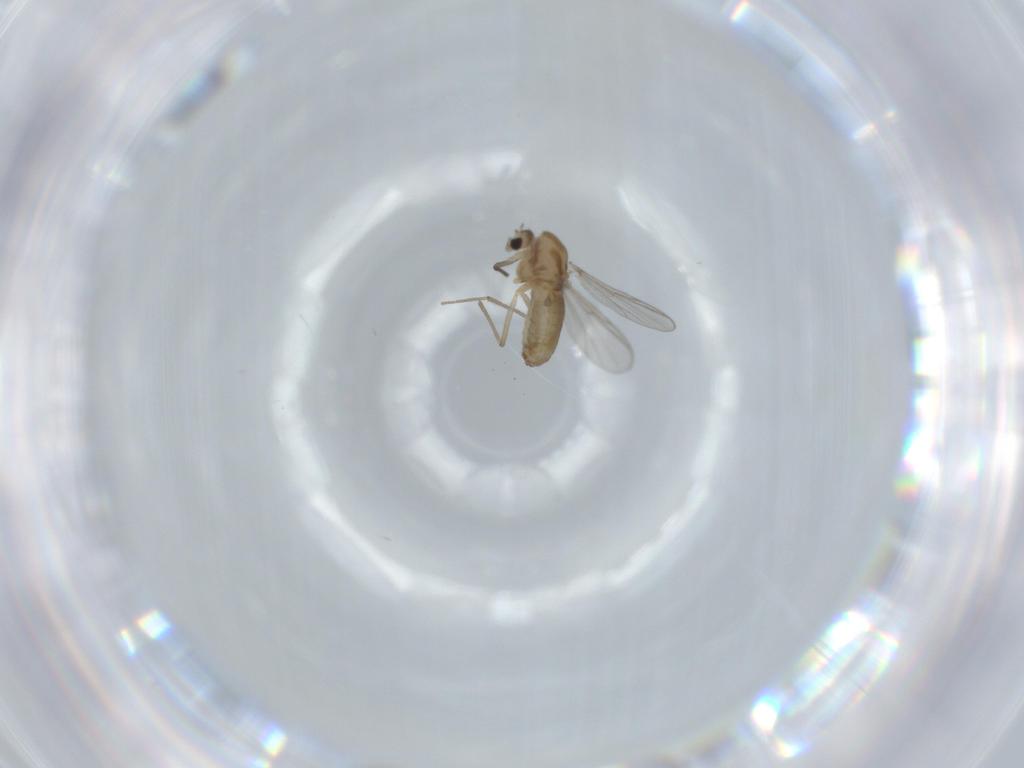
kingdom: Animalia
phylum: Arthropoda
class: Insecta
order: Diptera
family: Chironomidae
